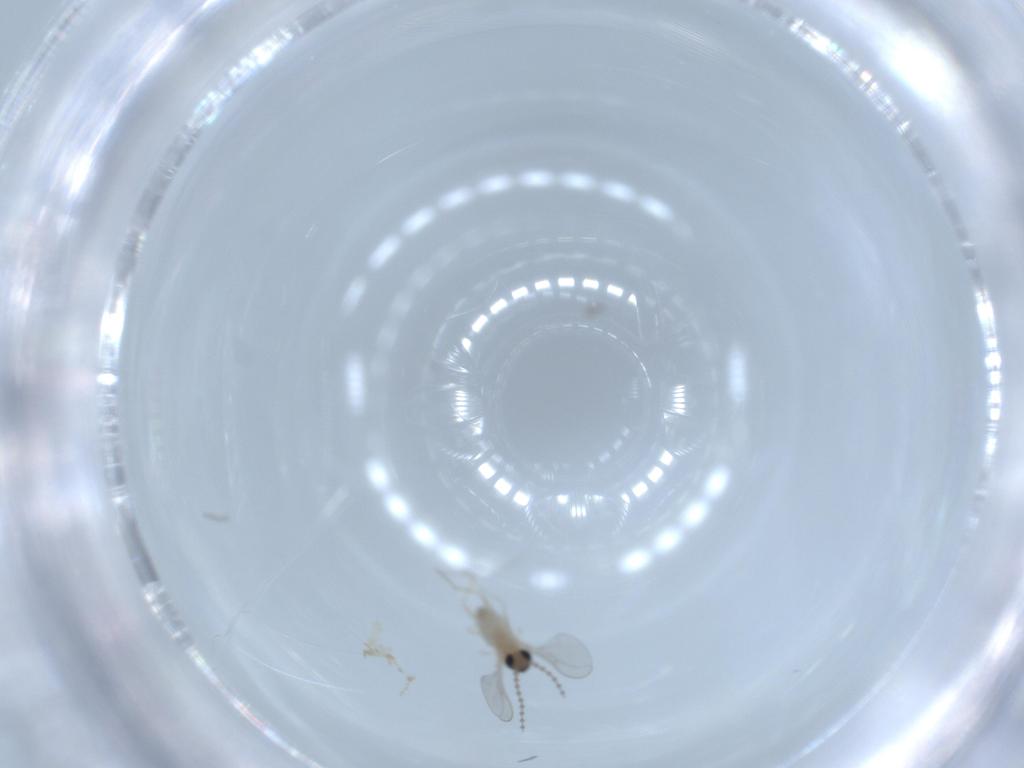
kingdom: Animalia
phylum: Arthropoda
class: Insecta
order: Diptera
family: Cecidomyiidae
